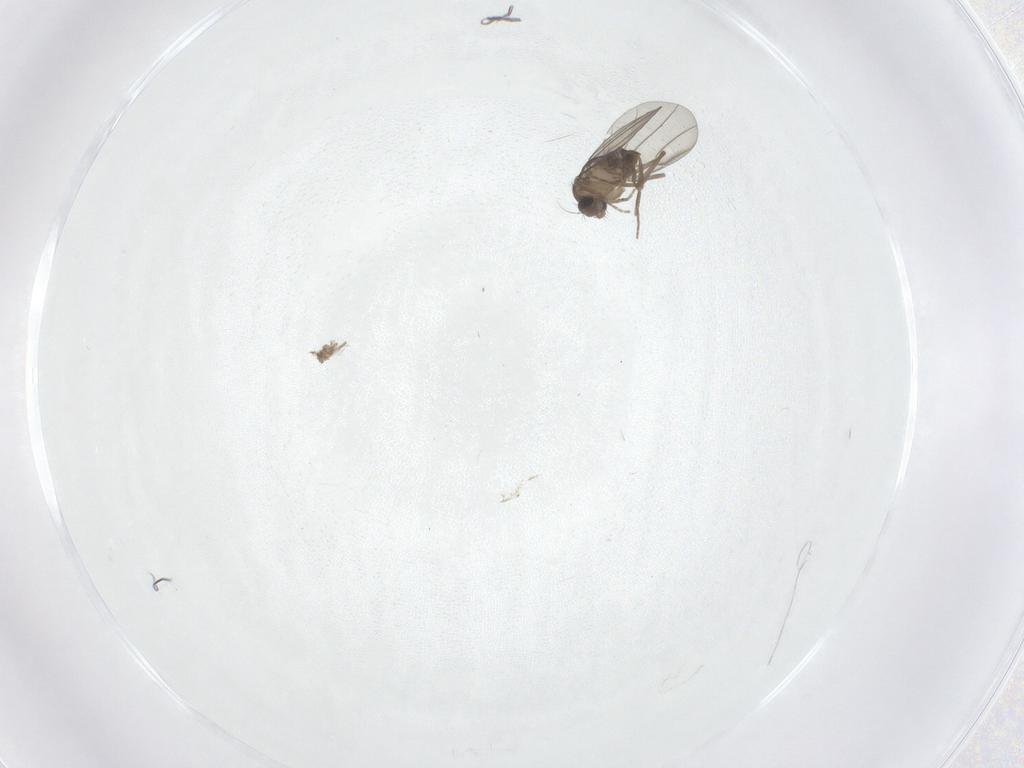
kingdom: Animalia
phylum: Arthropoda
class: Insecta
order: Diptera
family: Phoridae
